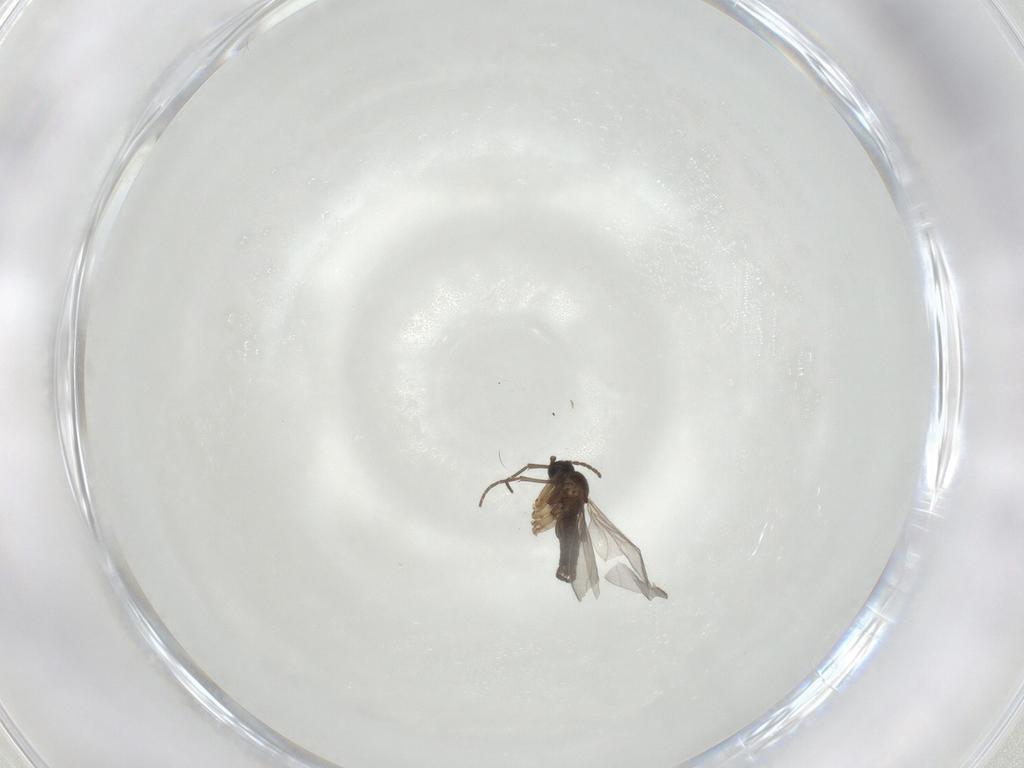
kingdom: Animalia
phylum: Arthropoda
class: Insecta
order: Diptera
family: Sciaridae
